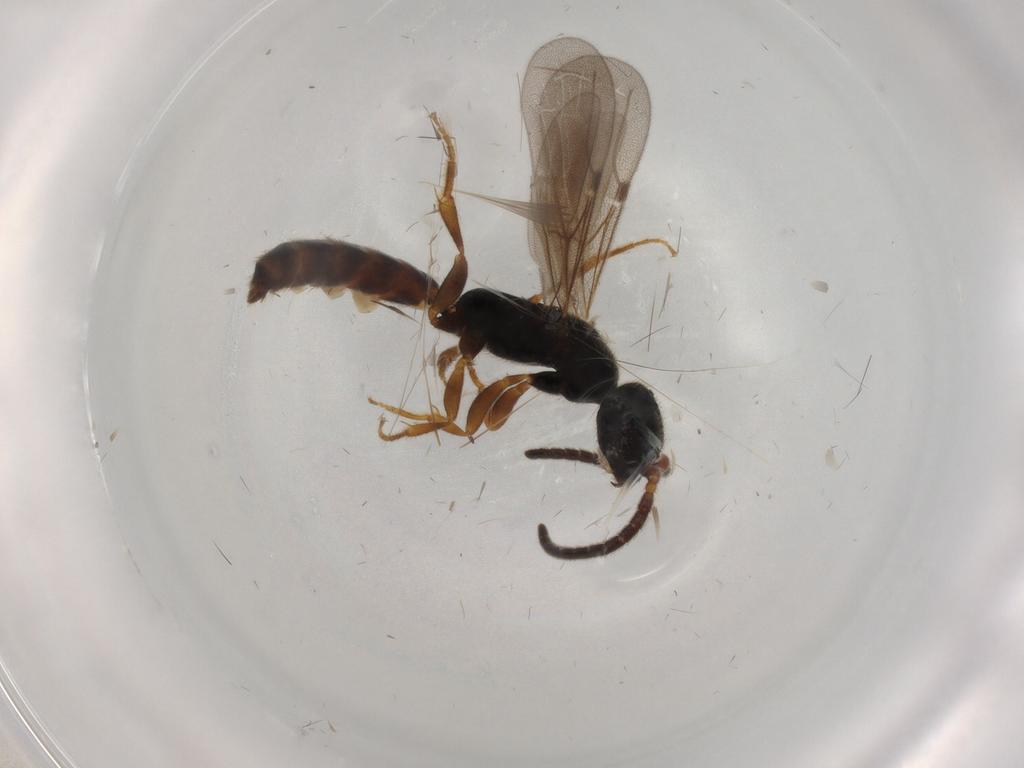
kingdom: Animalia
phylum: Arthropoda
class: Insecta
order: Hymenoptera
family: Bethylidae
